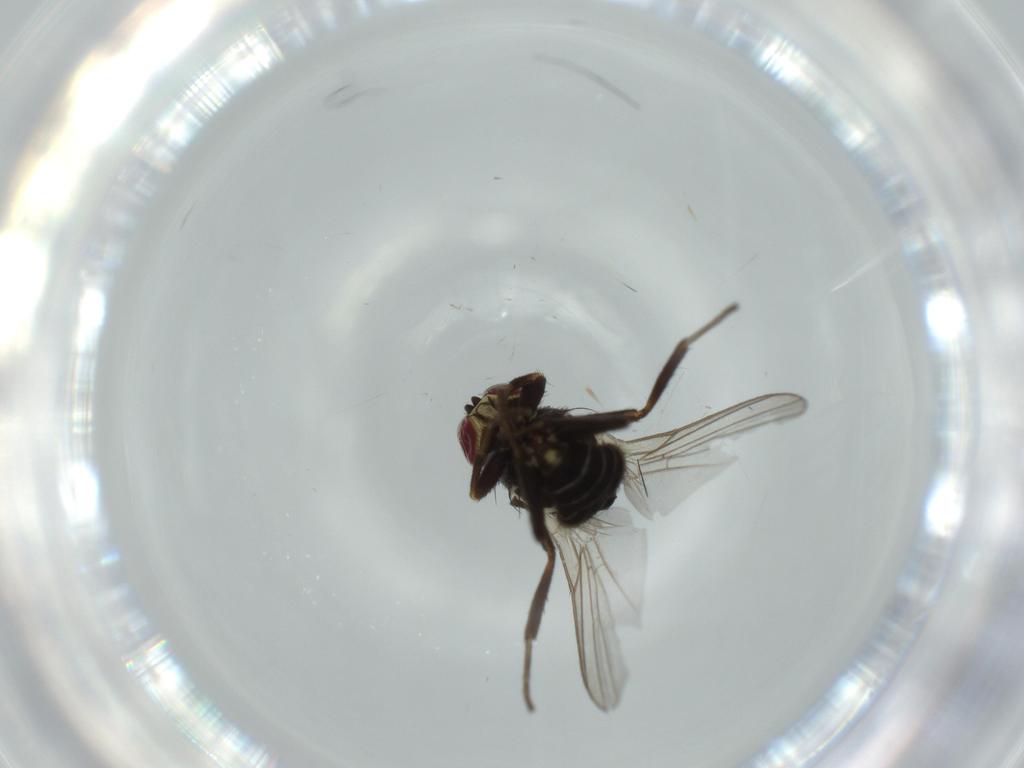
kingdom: Animalia
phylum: Arthropoda
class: Insecta
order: Diptera
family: Agromyzidae
